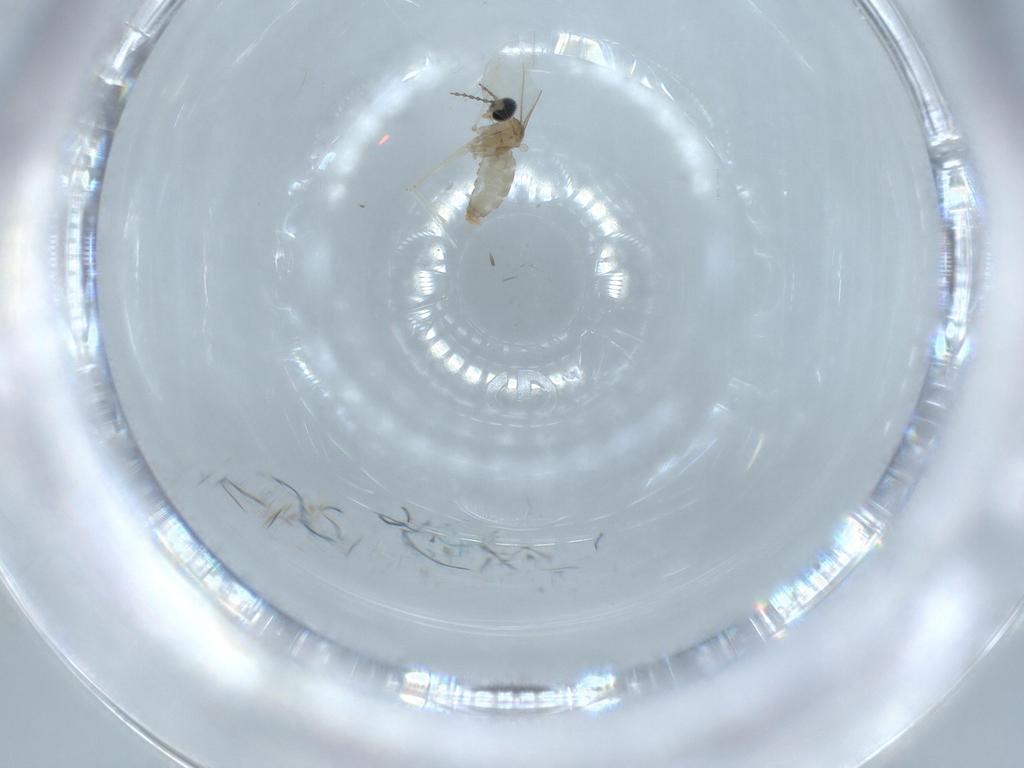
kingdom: Animalia
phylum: Arthropoda
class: Insecta
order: Diptera
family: Cecidomyiidae
